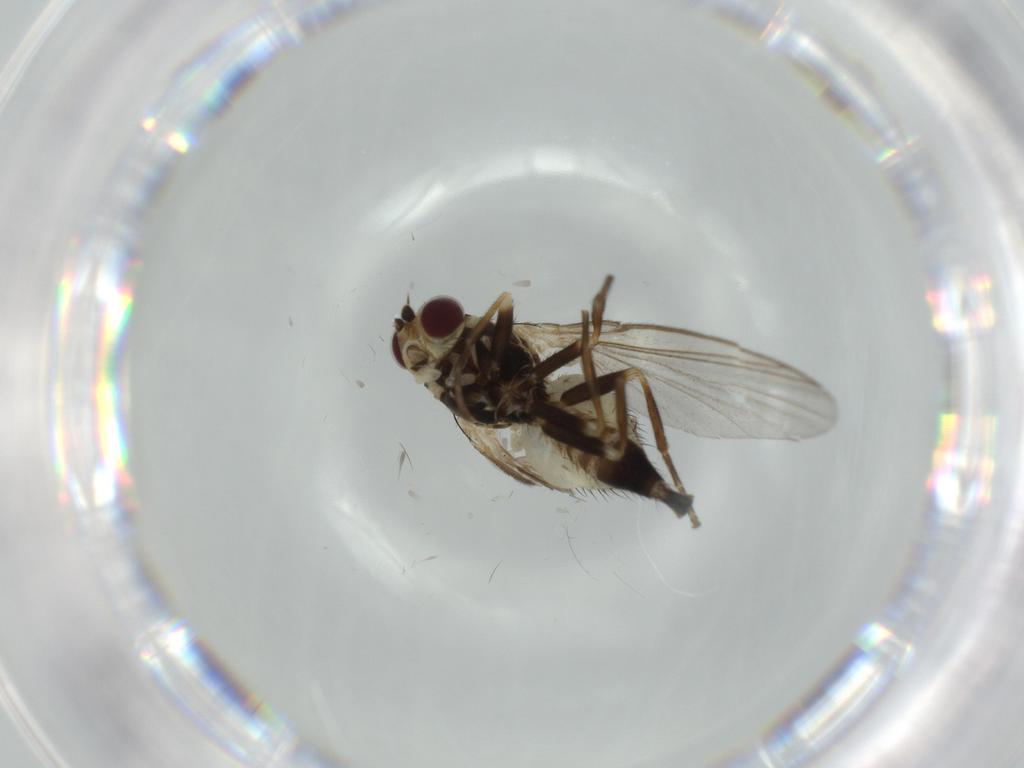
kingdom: Animalia
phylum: Arthropoda
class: Insecta
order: Diptera
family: Agromyzidae
